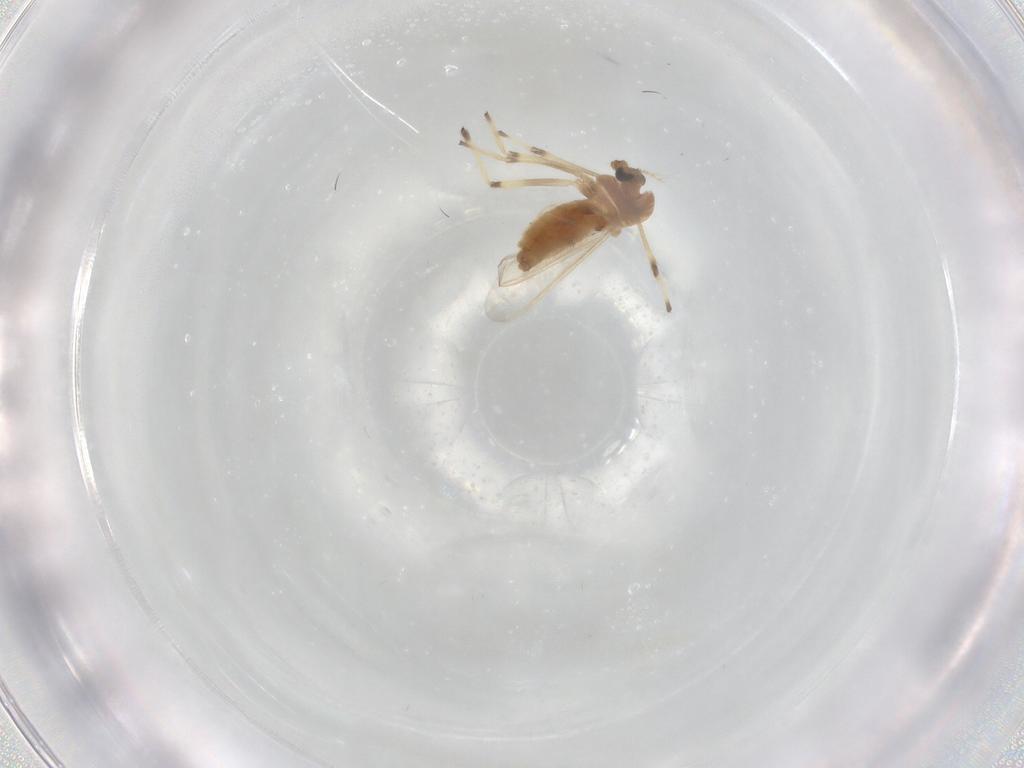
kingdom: Animalia
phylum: Arthropoda
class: Insecta
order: Diptera
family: Chironomidae
